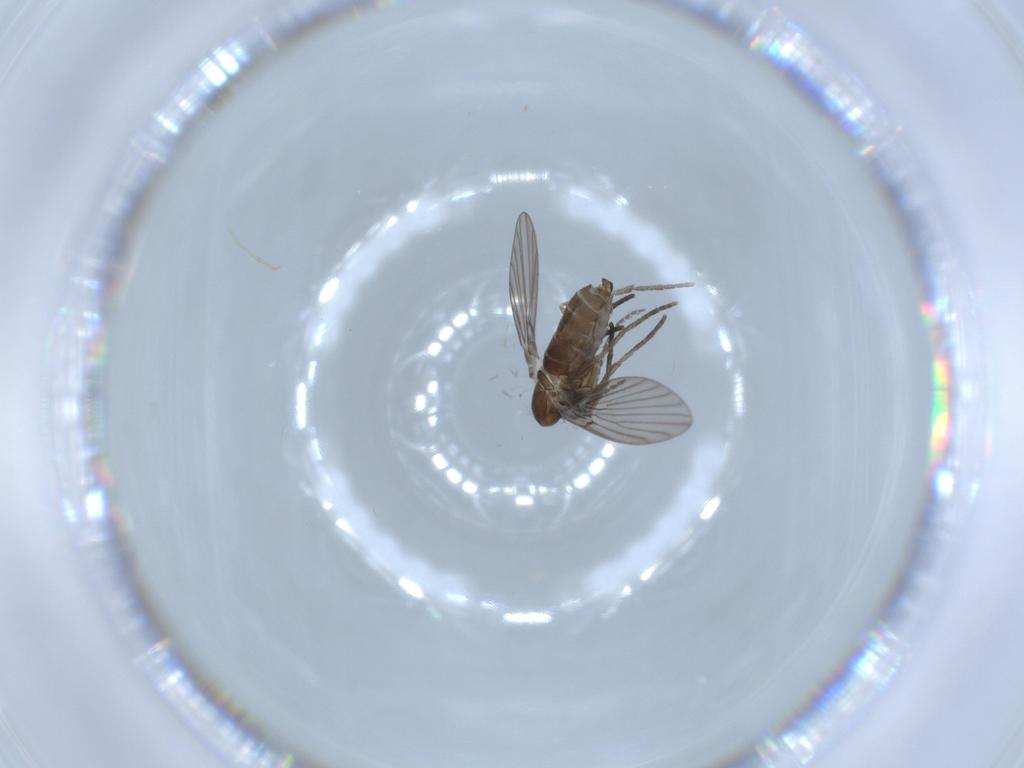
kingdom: Animalia
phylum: Arthropoda
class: Insecta
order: Diptera
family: Psychodidae
